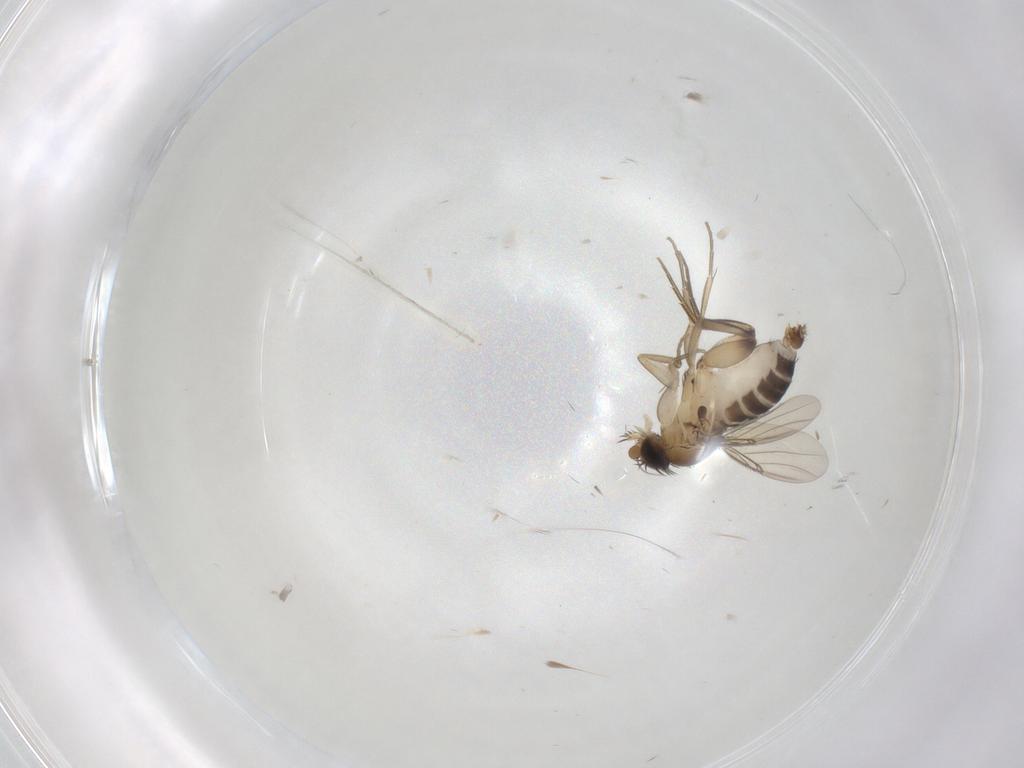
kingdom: Animalia
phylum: Arthropoda
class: Insecta
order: Diptera
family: Phoridae
